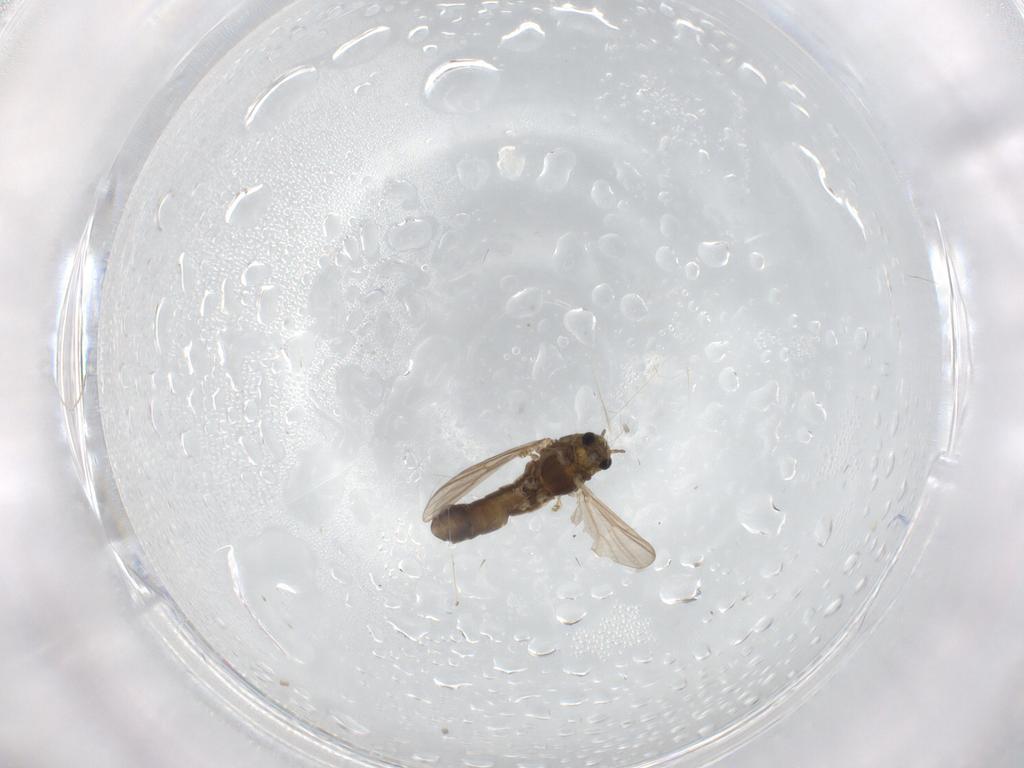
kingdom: Animalia
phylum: Arthropoda
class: Insecta
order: Diptera
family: Chironomidae
